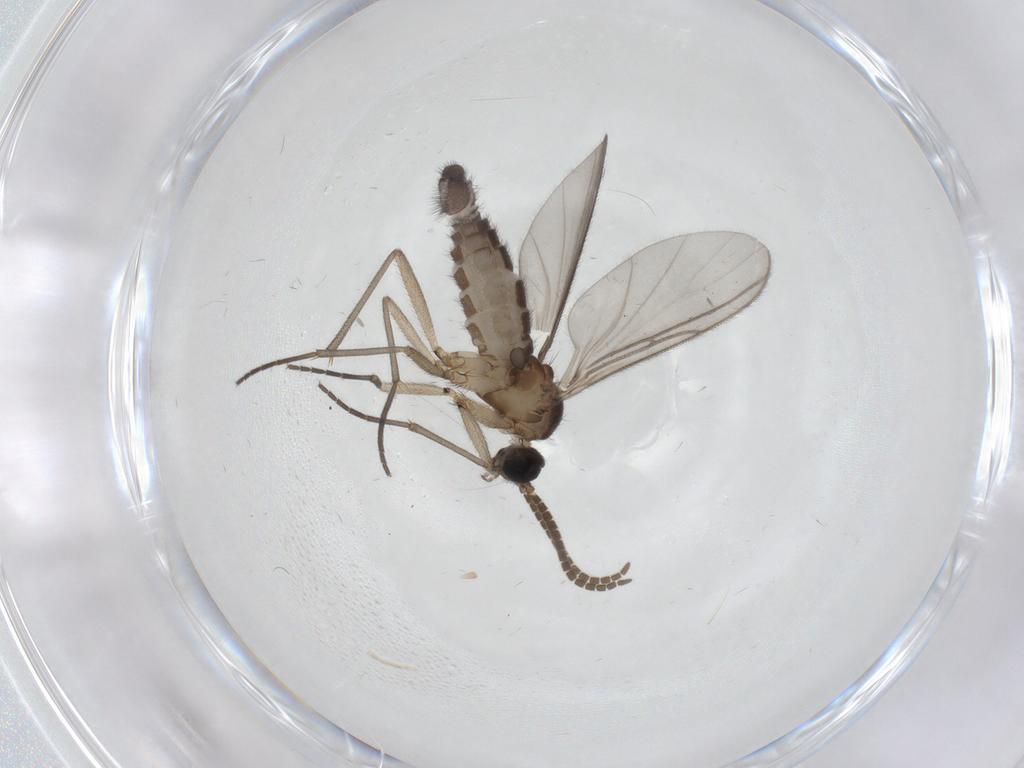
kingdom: Animalia
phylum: Arthropoda
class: Insecta
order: Diptera
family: Sciaridae
